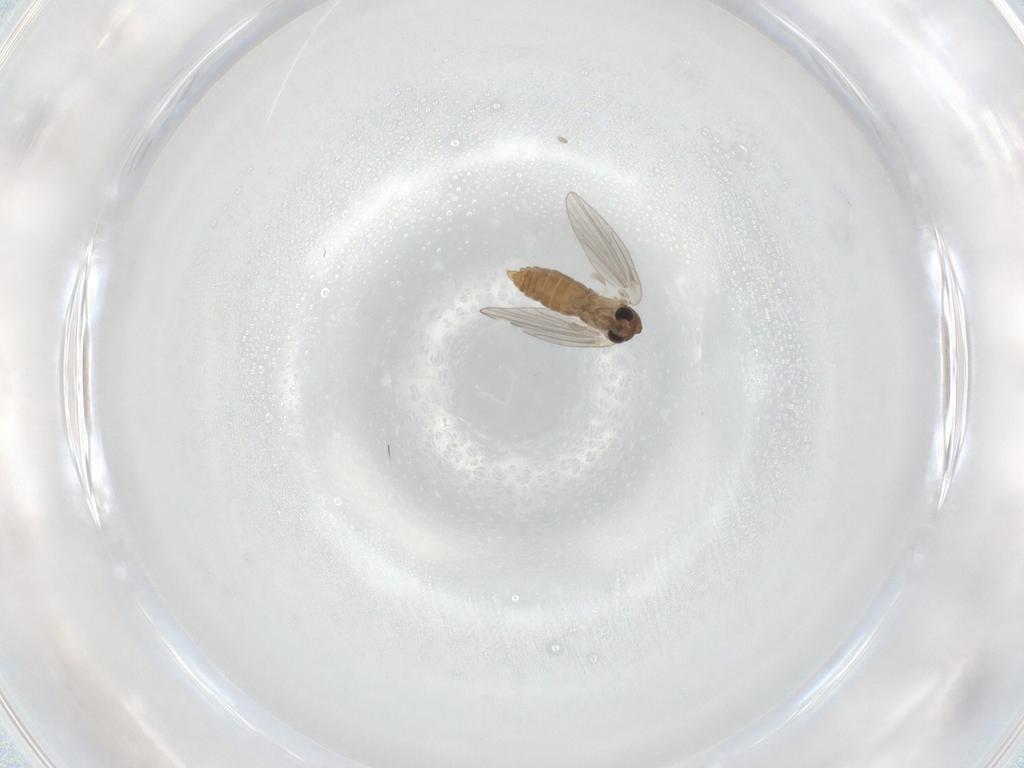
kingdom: Animalia
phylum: Arthropoda
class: Insecta
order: Diptera
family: Psychodidae
